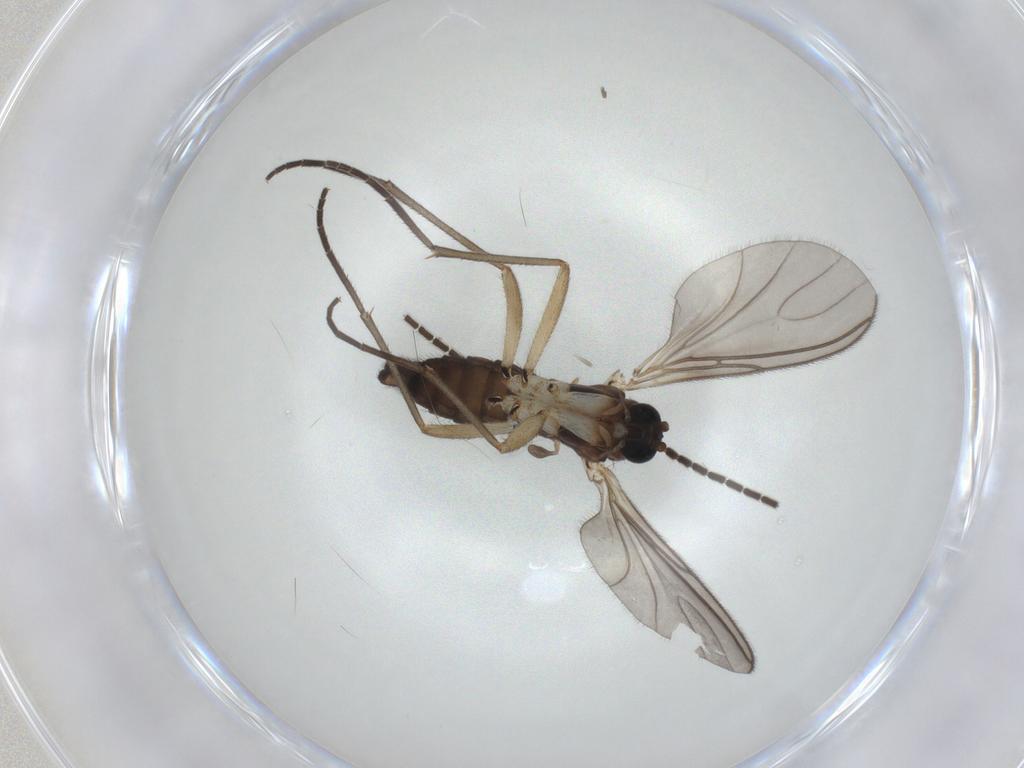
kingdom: Animalia
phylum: Arthropoda
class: Insecta
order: Diptera
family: Sciaridae
